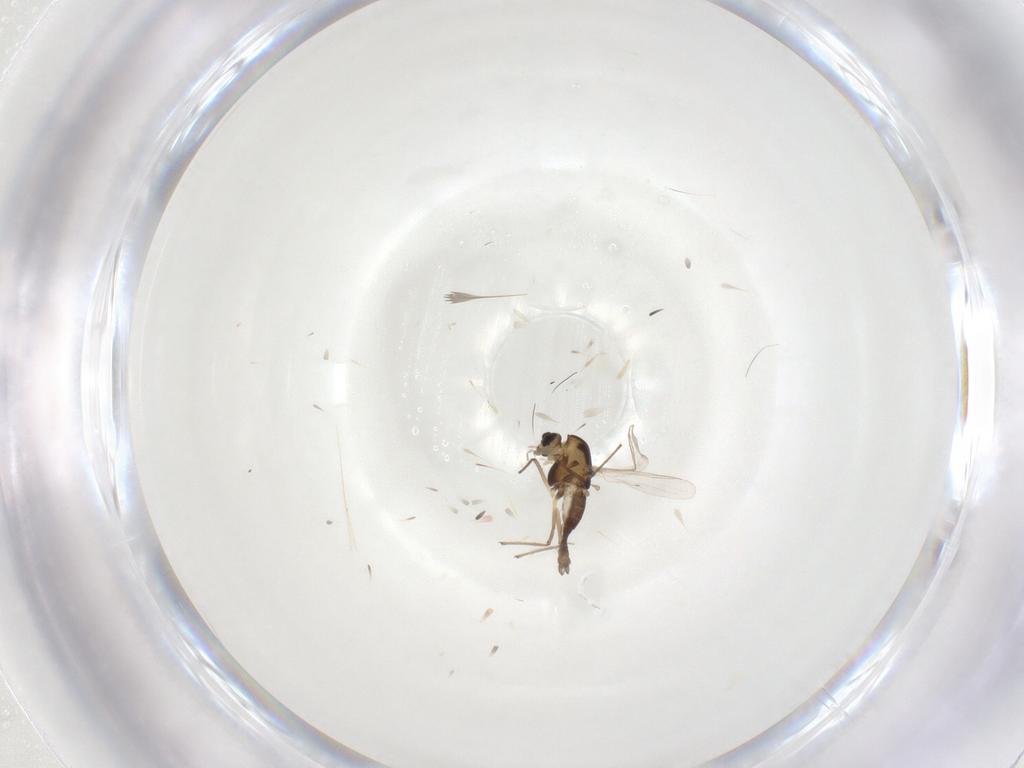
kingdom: Animalia
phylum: Arthropoda
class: Insecta
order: Diptera
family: Chironomidae
